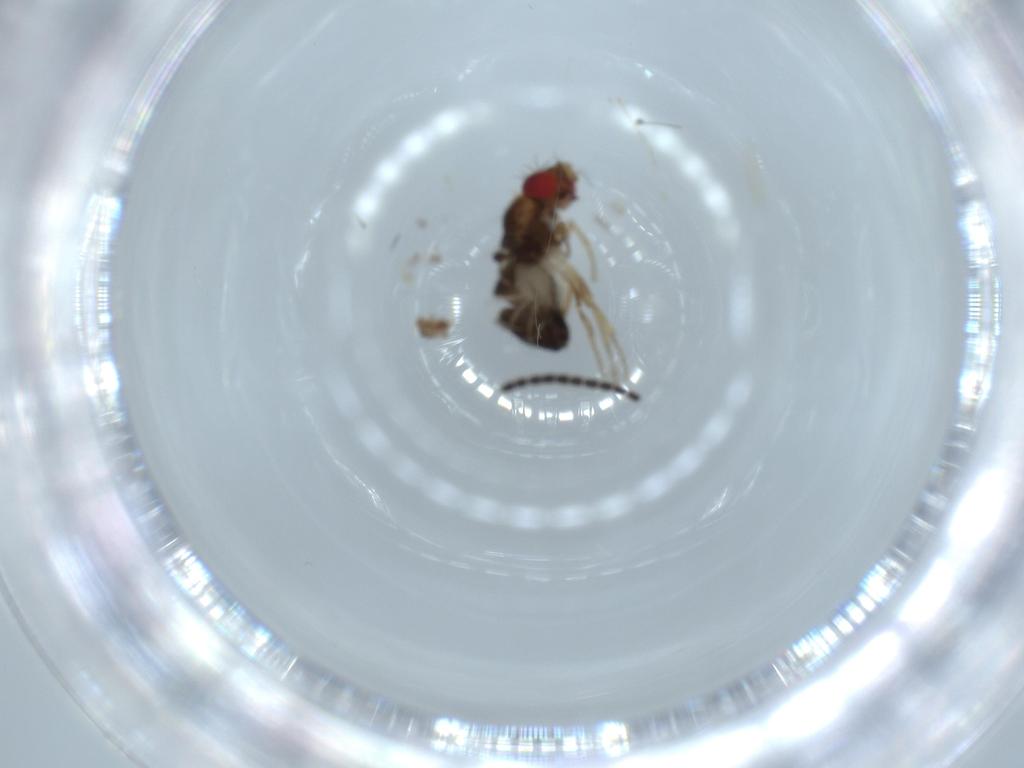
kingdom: Animalia
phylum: Arthropoda
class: Insecta
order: Diptera
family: Drosophilidae
